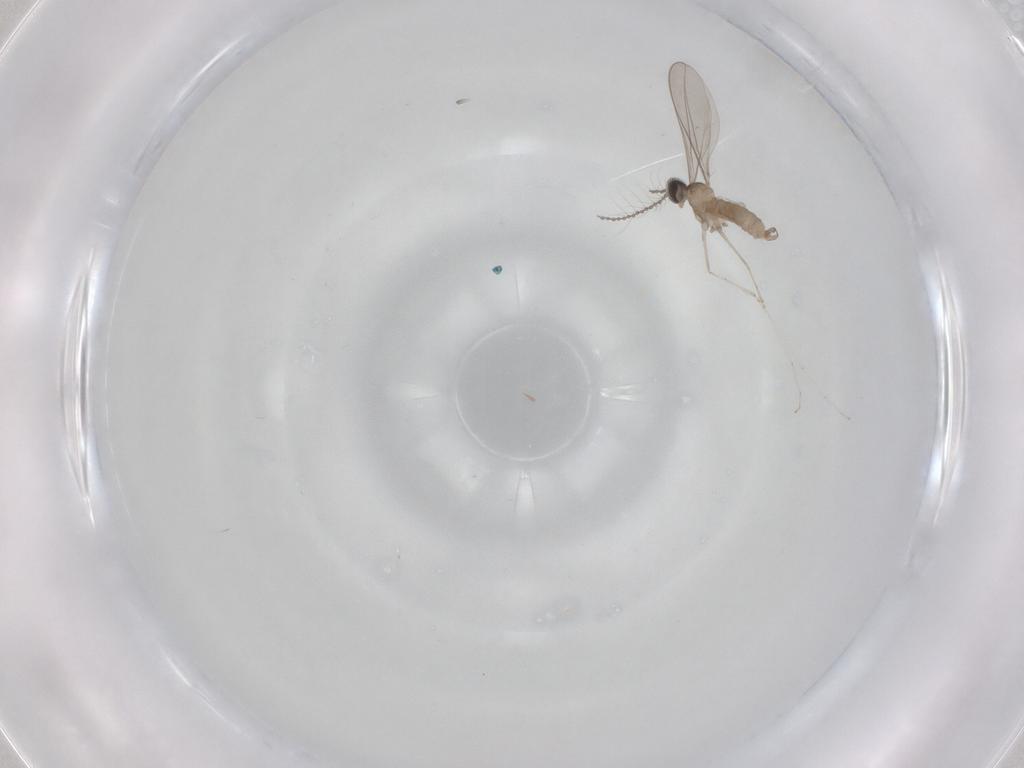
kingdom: Animalia
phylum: Arthropoda
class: Insecta
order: Diptera
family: Cecidomyiidae
